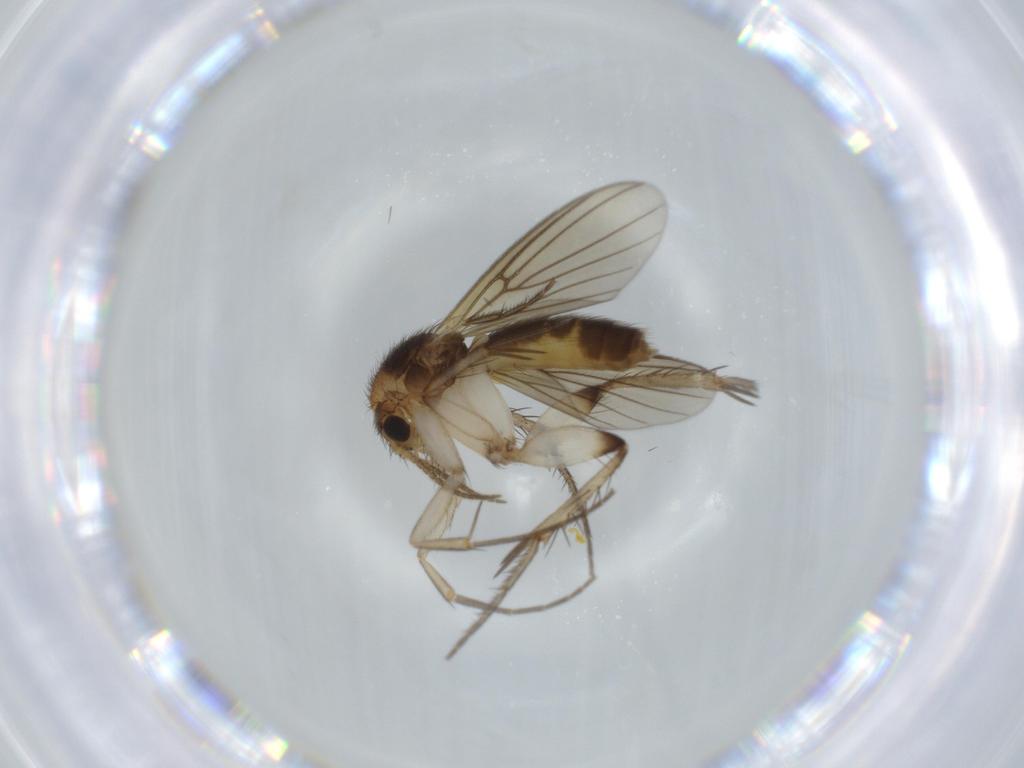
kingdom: Animalia
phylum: Arthropoda
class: Insecta
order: Diptera
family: Mycetophilidae
